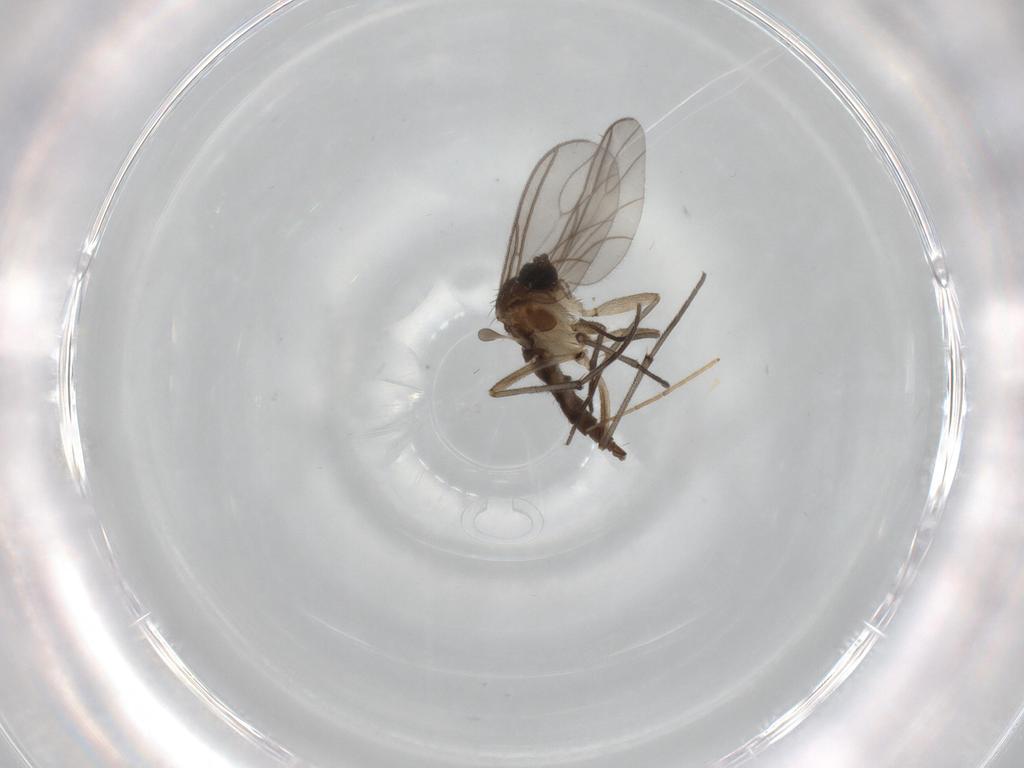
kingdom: Animalia
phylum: Arthropoda
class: Insecta
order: Diptera
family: Sciaridae
